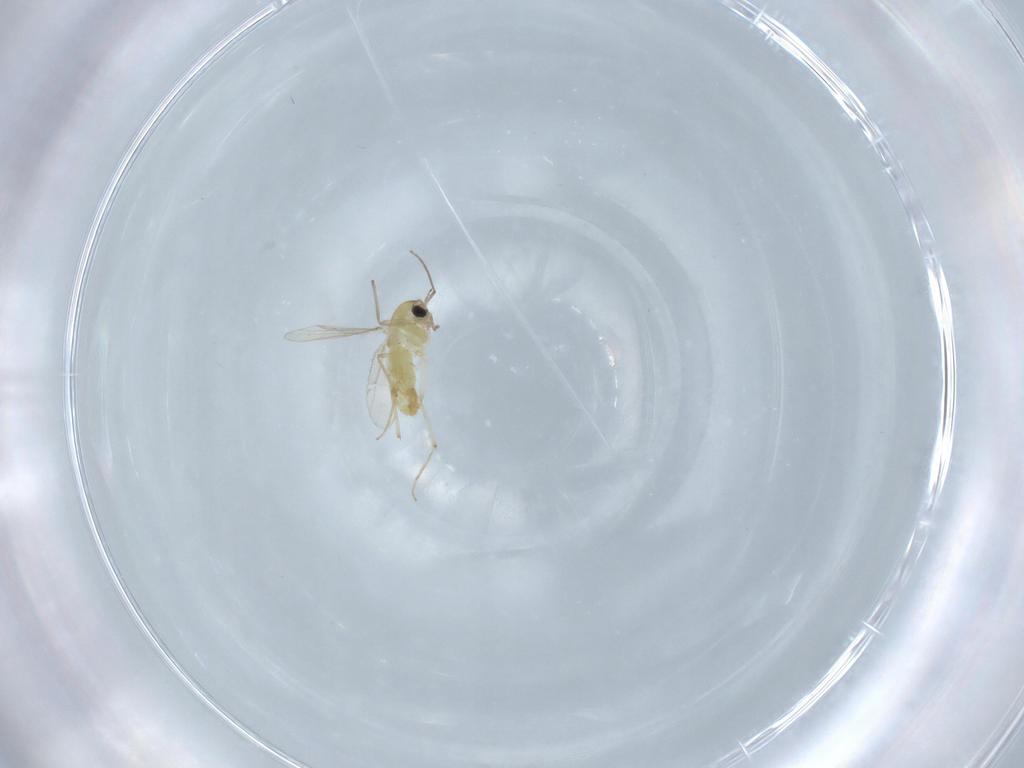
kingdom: Animalia
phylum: Arthropoda
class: Insecta
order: Diptera
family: Chironomidae
